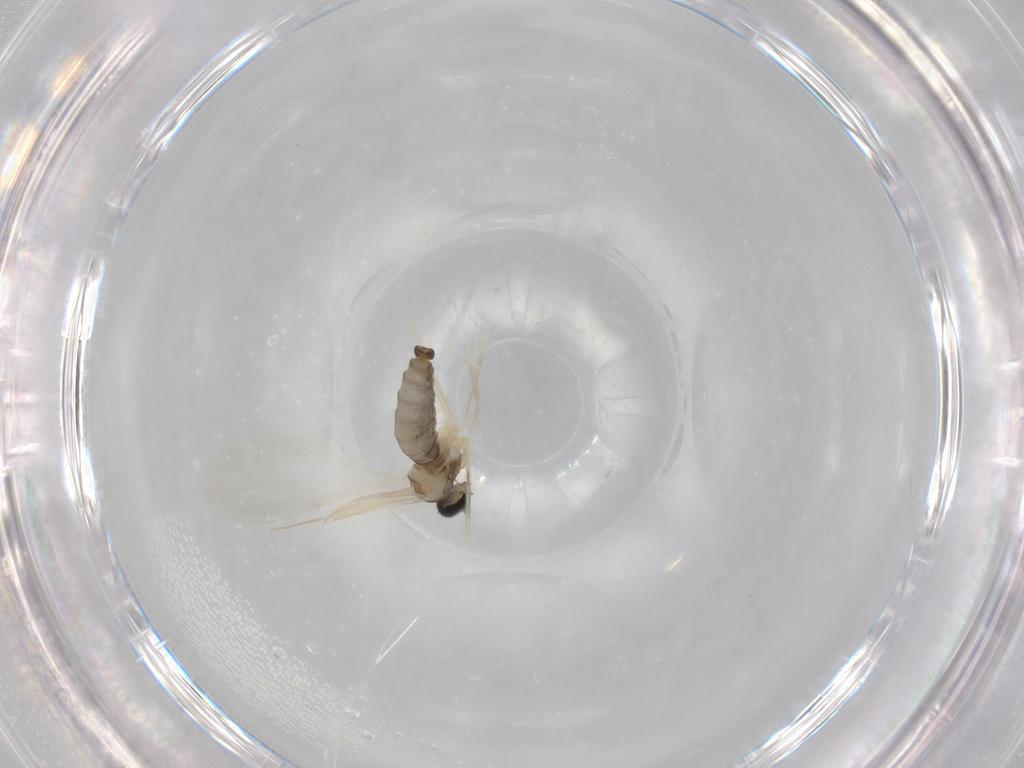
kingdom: Animalia
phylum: Arthropoda
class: Insecta
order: Diptera
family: Cecidomyiidae
